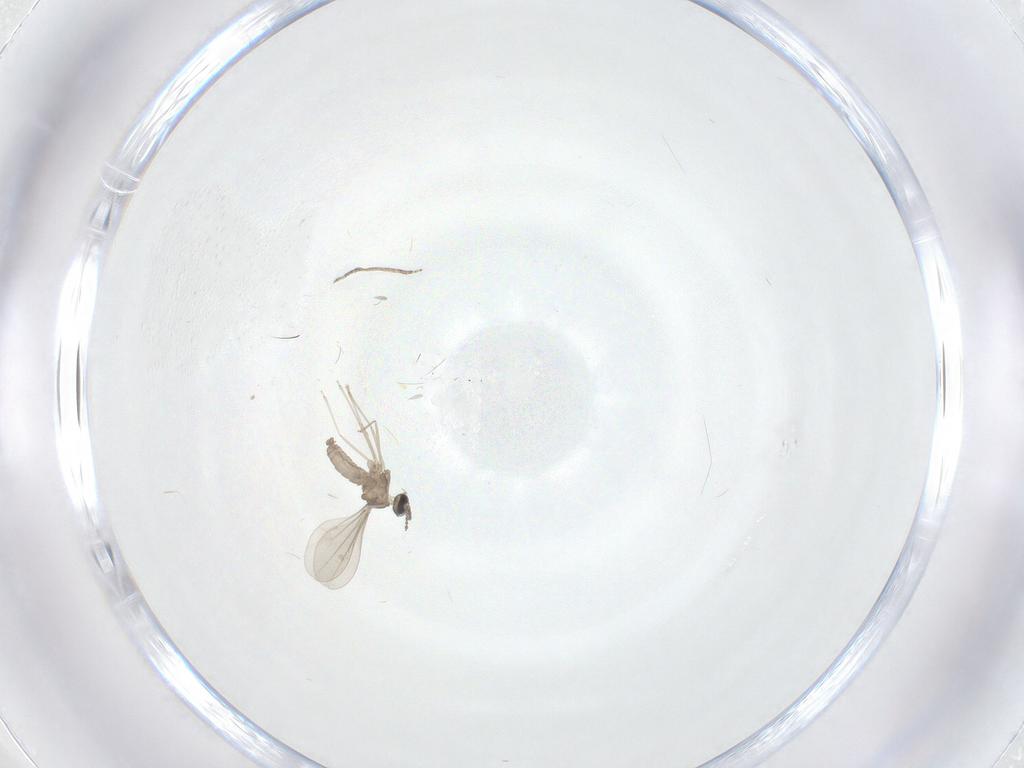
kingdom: Animalia
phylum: Arthropoda
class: Insecta
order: Diptera
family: Cecidomyiidae
